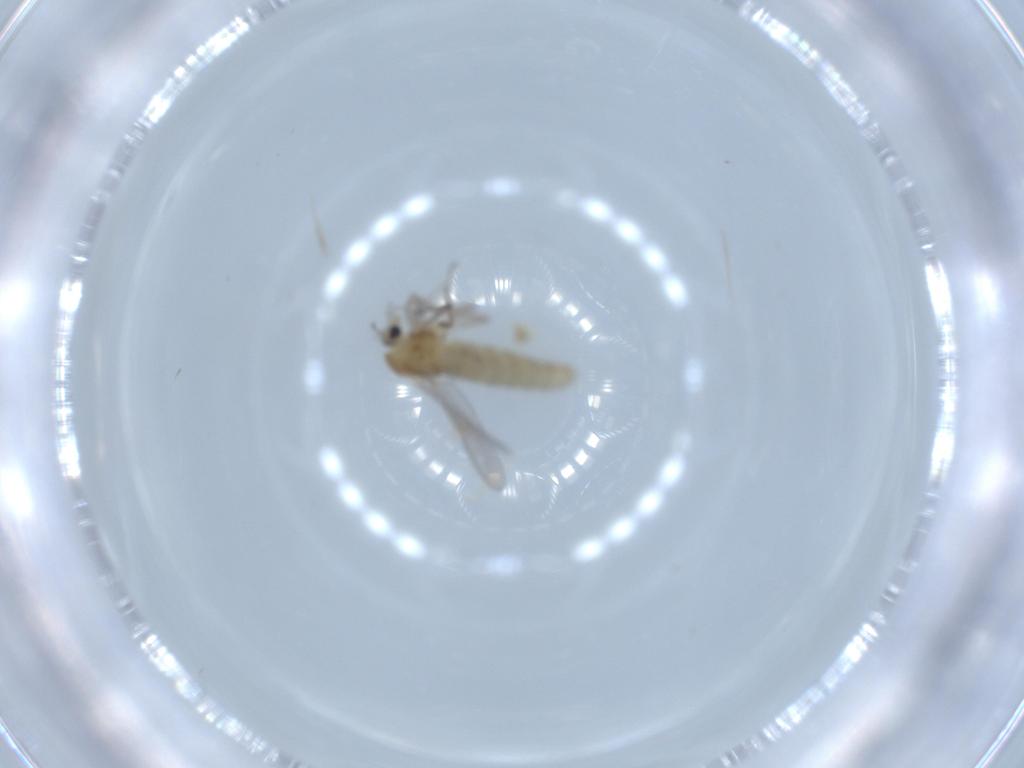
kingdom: Animalia
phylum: Arthropoda
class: Insecta
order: Diptera
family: Chironomidae
